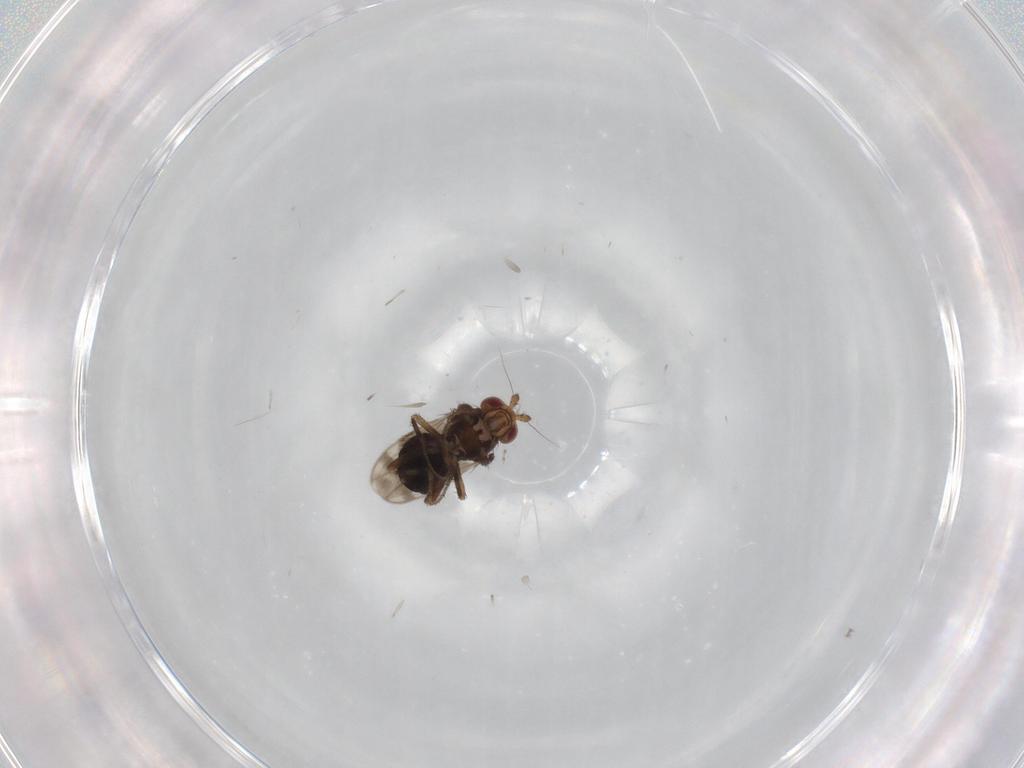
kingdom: Animalia
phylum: Arthropoda
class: Insecta
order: Diptera
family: Sphaeroceridae
